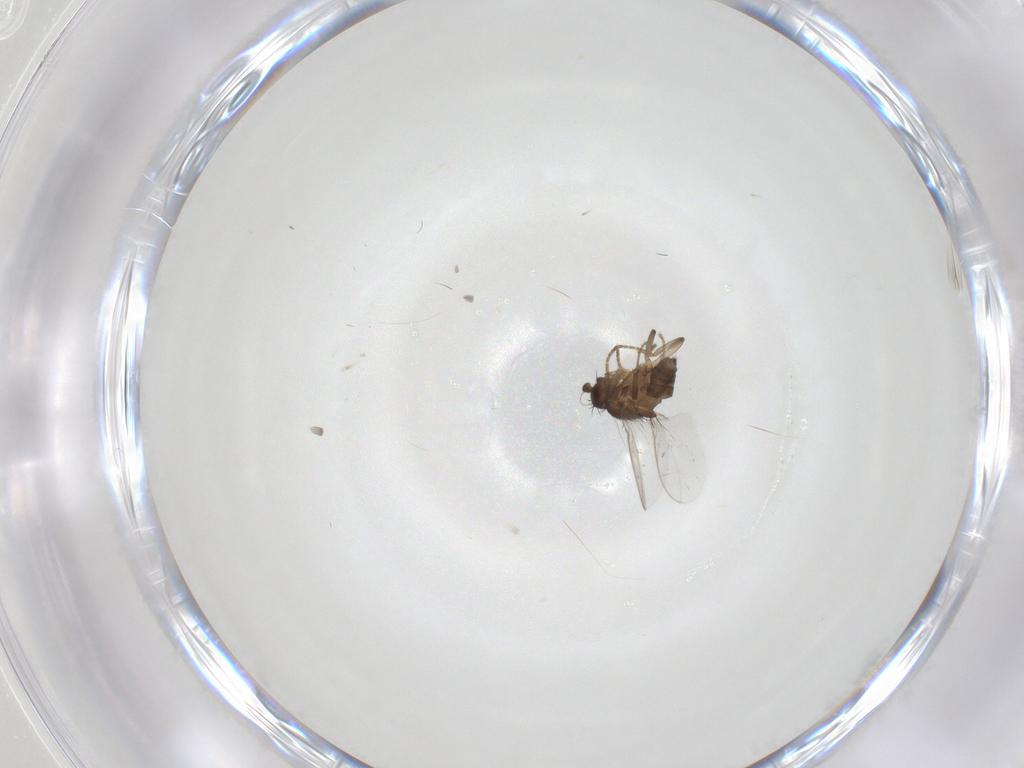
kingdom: Animalia
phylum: Arthropoda
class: Insecta
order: Diptera
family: Sphaeroceridae
